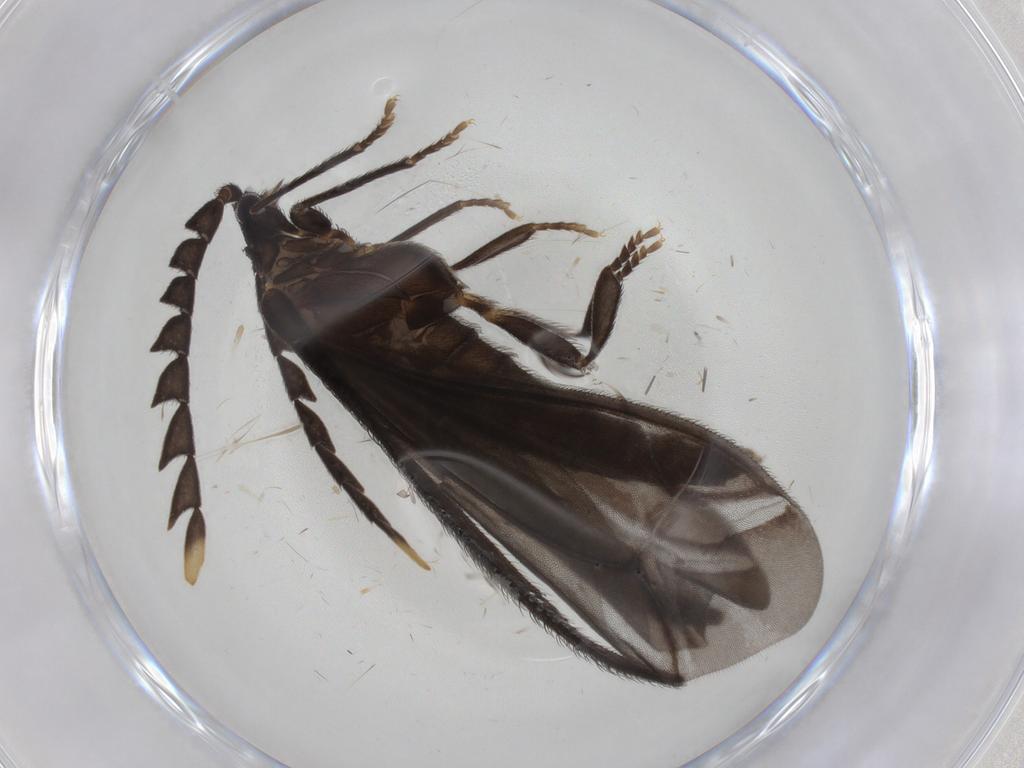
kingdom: Animalia
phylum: Arthropoda
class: Insecta
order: Coleoptera
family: Lycidae
